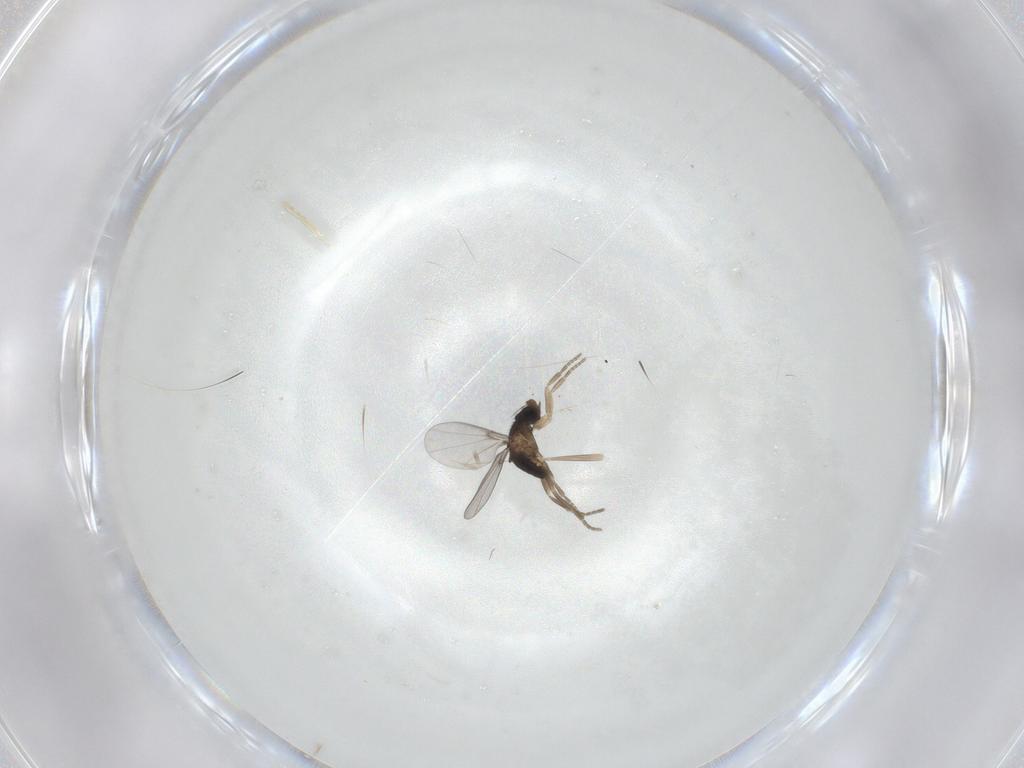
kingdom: Animalia
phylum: Arthropoda
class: Insecta
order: Diptera
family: Phoridae
